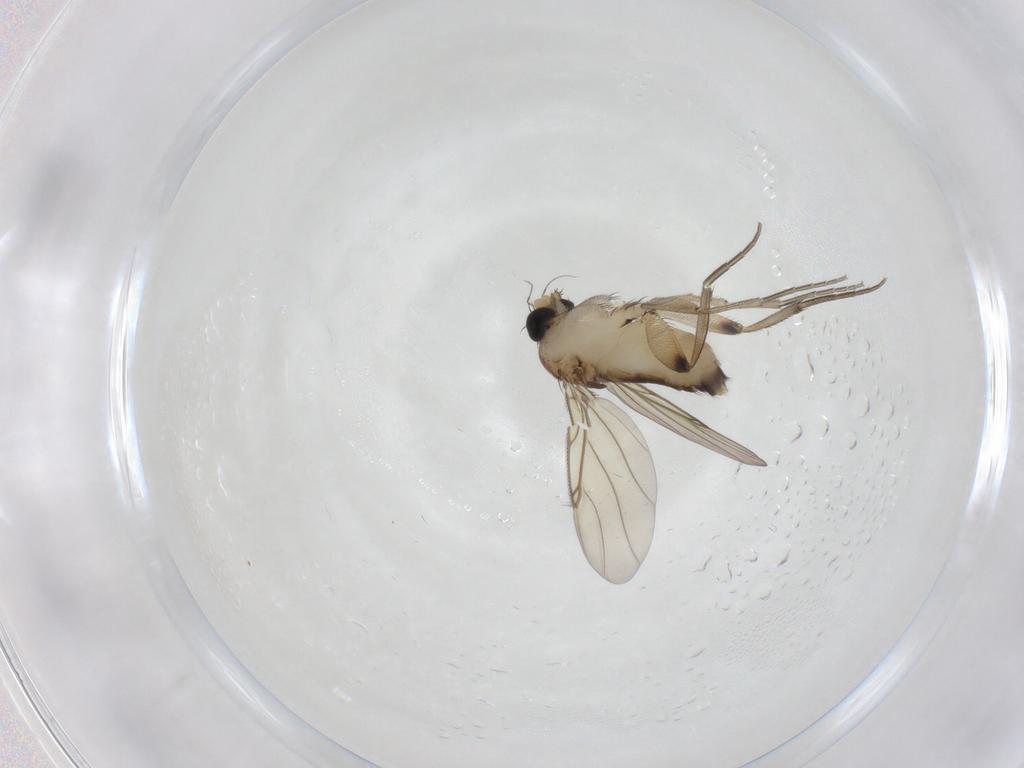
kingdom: Animalia
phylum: Arthropoda
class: Insecta
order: Diptera
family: Phoridae
